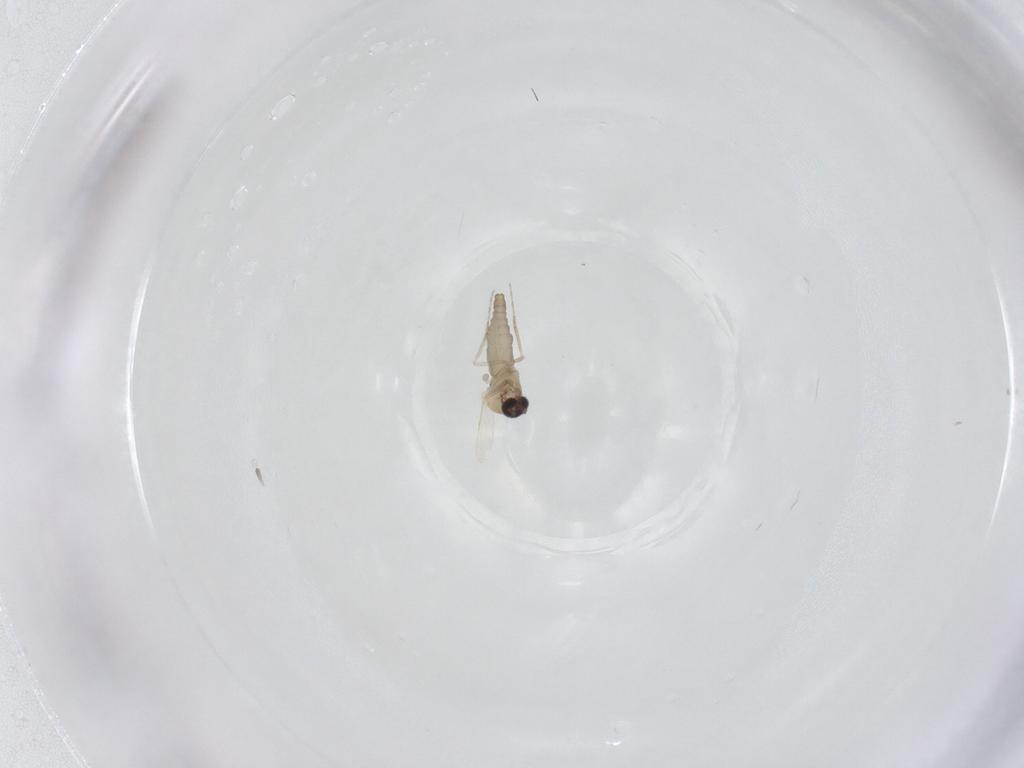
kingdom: Animalia
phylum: Arthropoda
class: Insecta
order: Diptera
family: Ceratopogonidae
